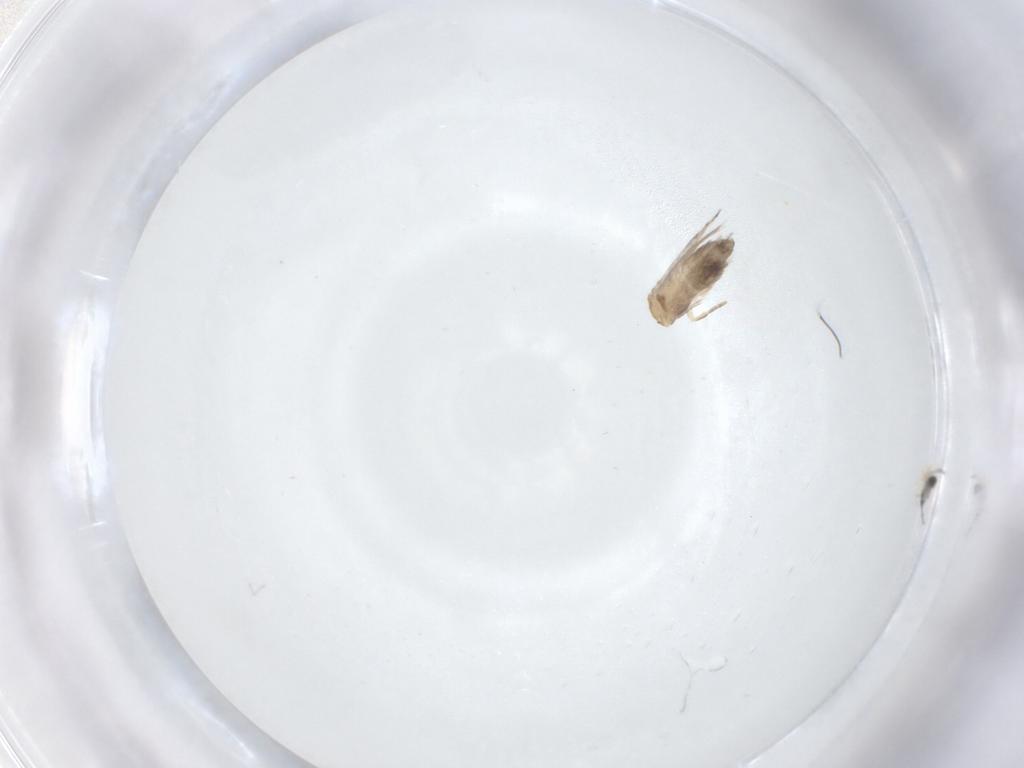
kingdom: Animalia
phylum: Arthropoda
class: Insecta
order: Lepidoptera
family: Nepticulidae
